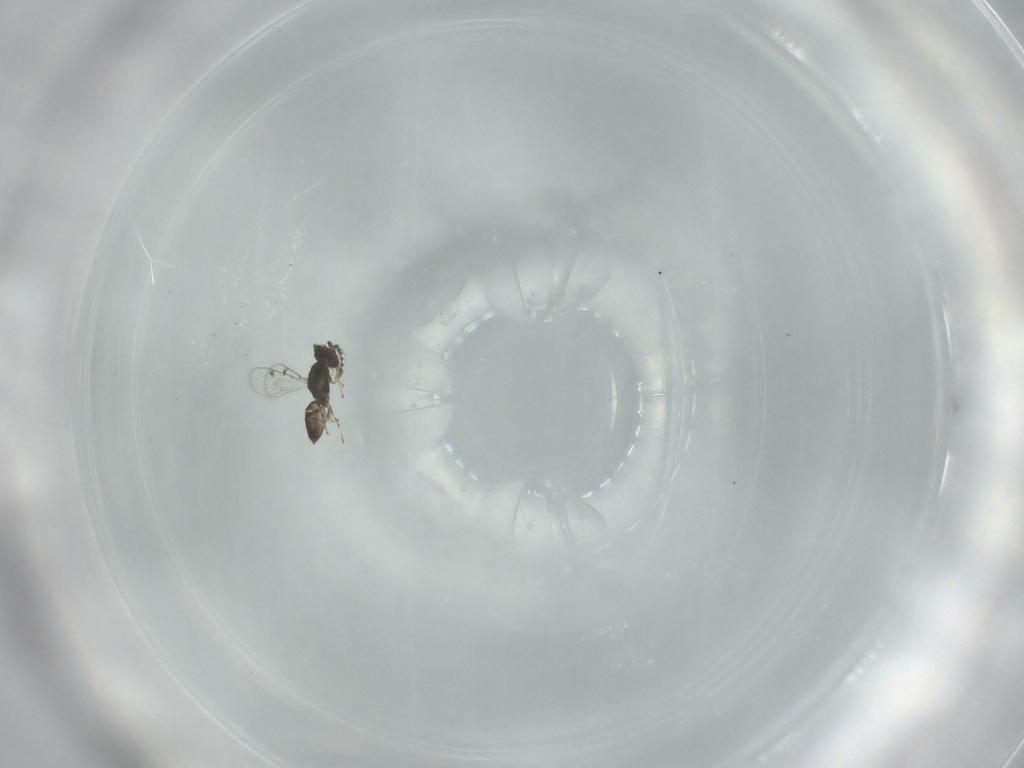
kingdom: Animalia
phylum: Arthropoda
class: Insecta
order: Hymenoptera
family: Eulophidae
